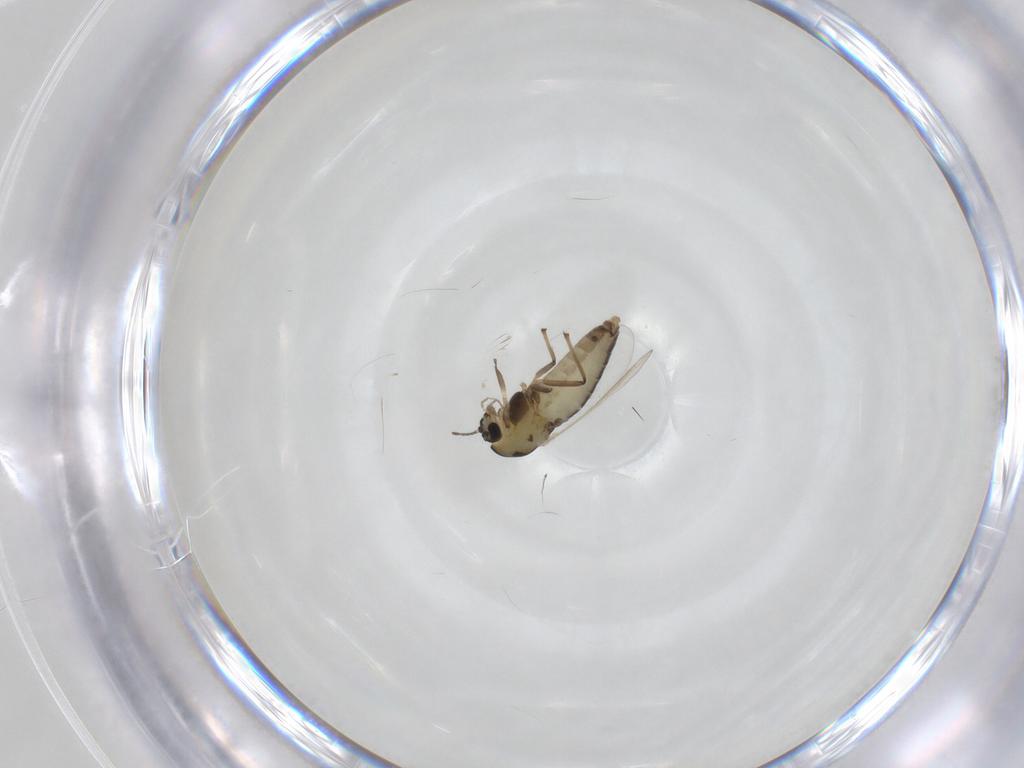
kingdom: Animalia
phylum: Arthropoda
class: Insecta
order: Diptera
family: Chironomidae
